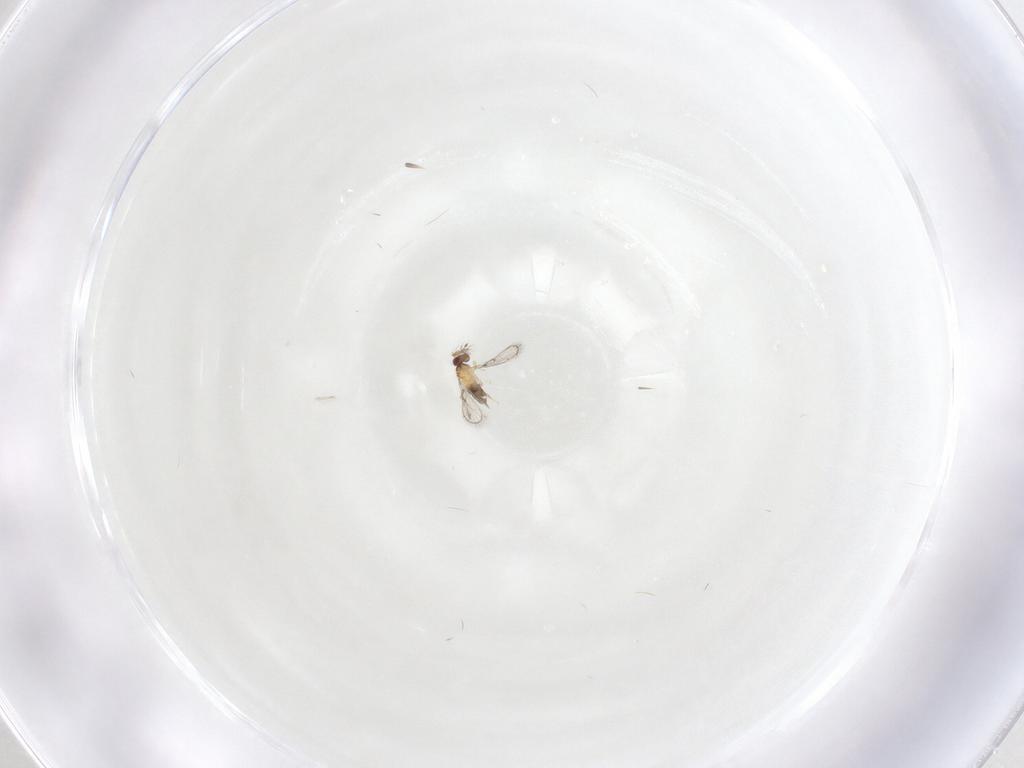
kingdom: Animalia
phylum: Arthropoda
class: Insecta
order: Hymenoptera
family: Trichogrammatidae
